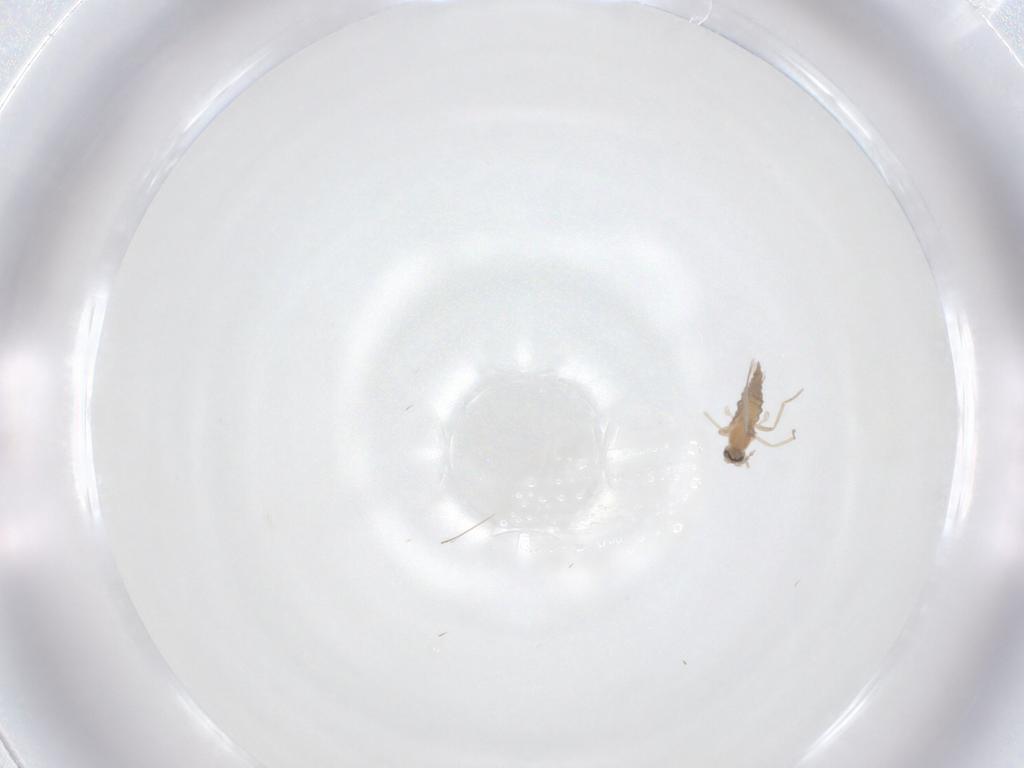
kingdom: Animalia
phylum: Arthropoda
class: Insecta
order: Diptera
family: Cecidomyiidae
